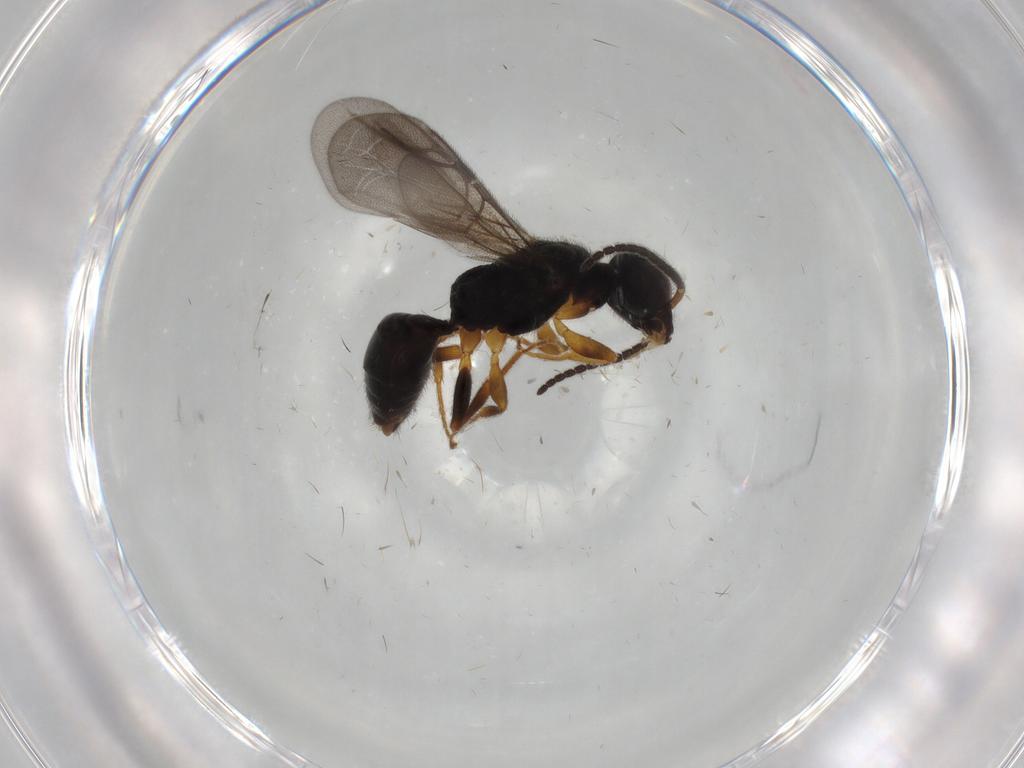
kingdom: Animalia
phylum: Arthropoda
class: Insecta
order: Hymenoptera
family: Bethylidae
